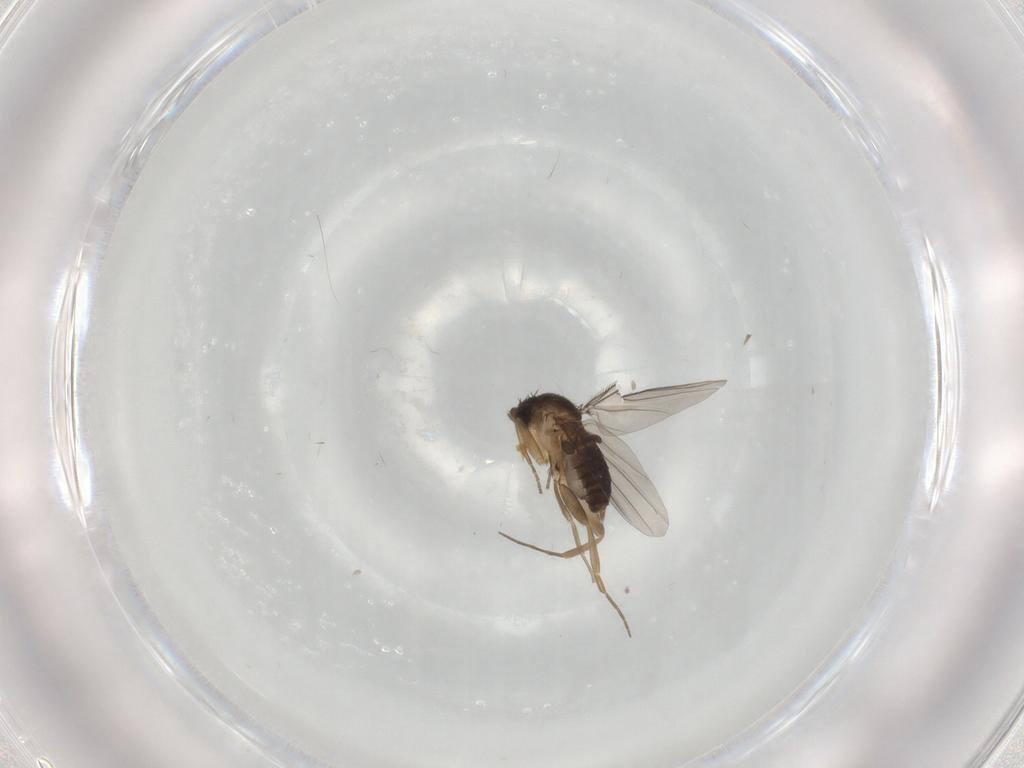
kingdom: Animalia
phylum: Arthropoda
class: Insecta
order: Diptera
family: Cecidomyiidae
